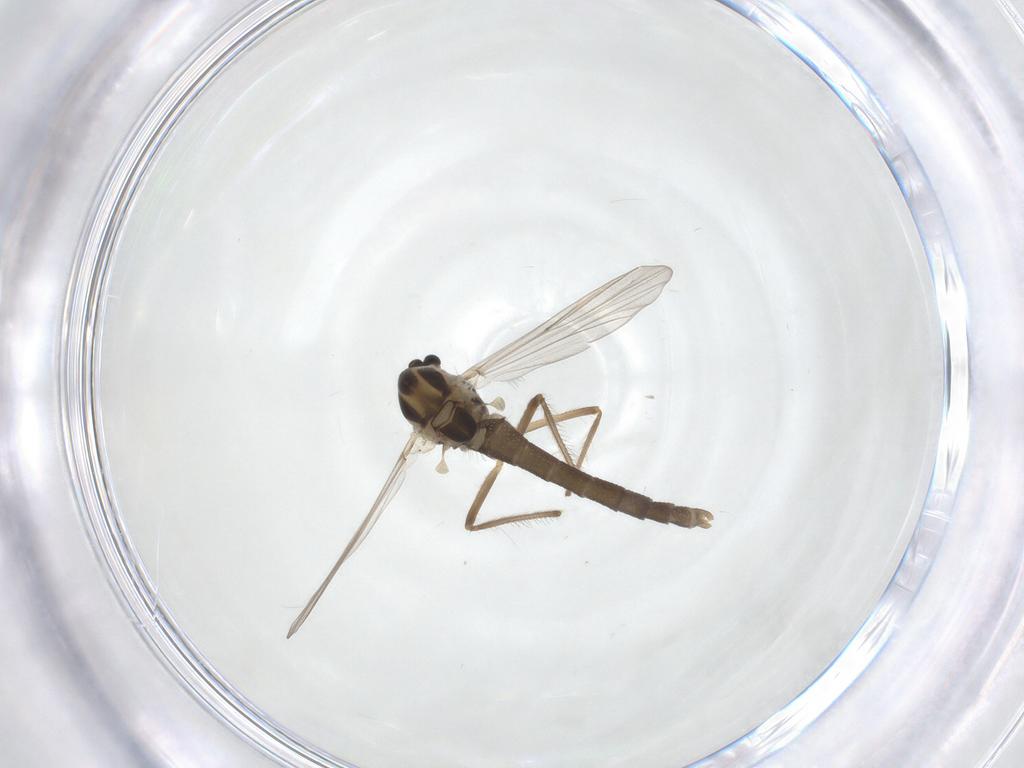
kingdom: Animalia
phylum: Arthropoda
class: Insecta
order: Diptera
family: Chironomidae
